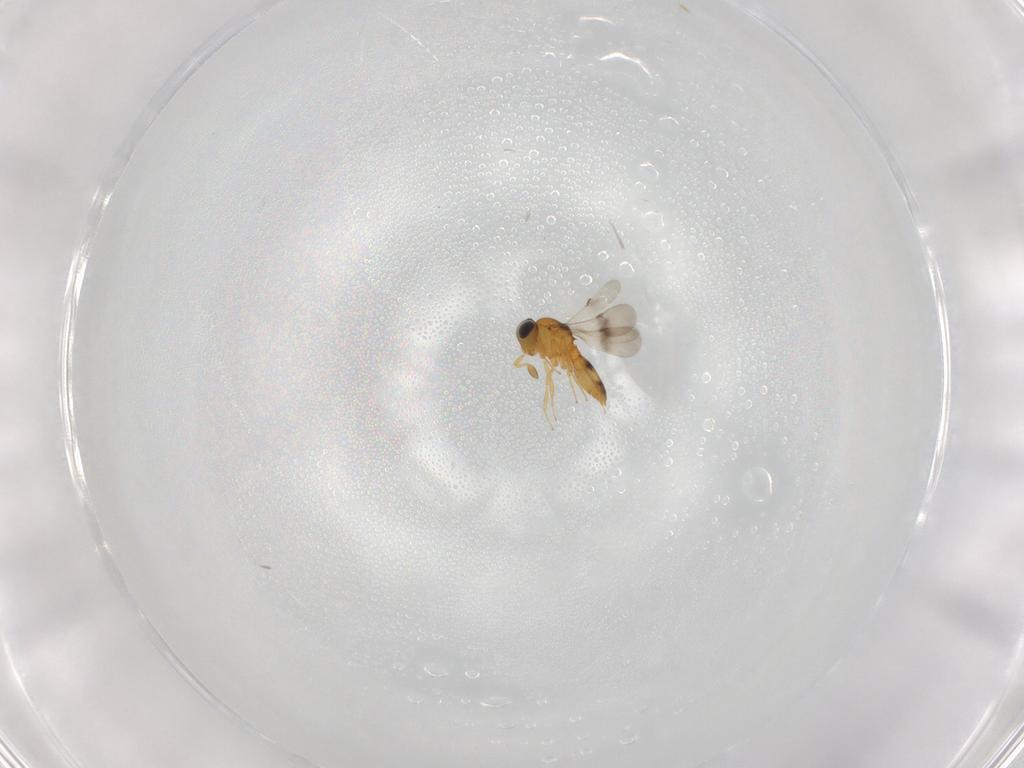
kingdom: Animalia
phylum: Arthropoda
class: Insecta
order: Hymenoptera
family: Scelionidae
